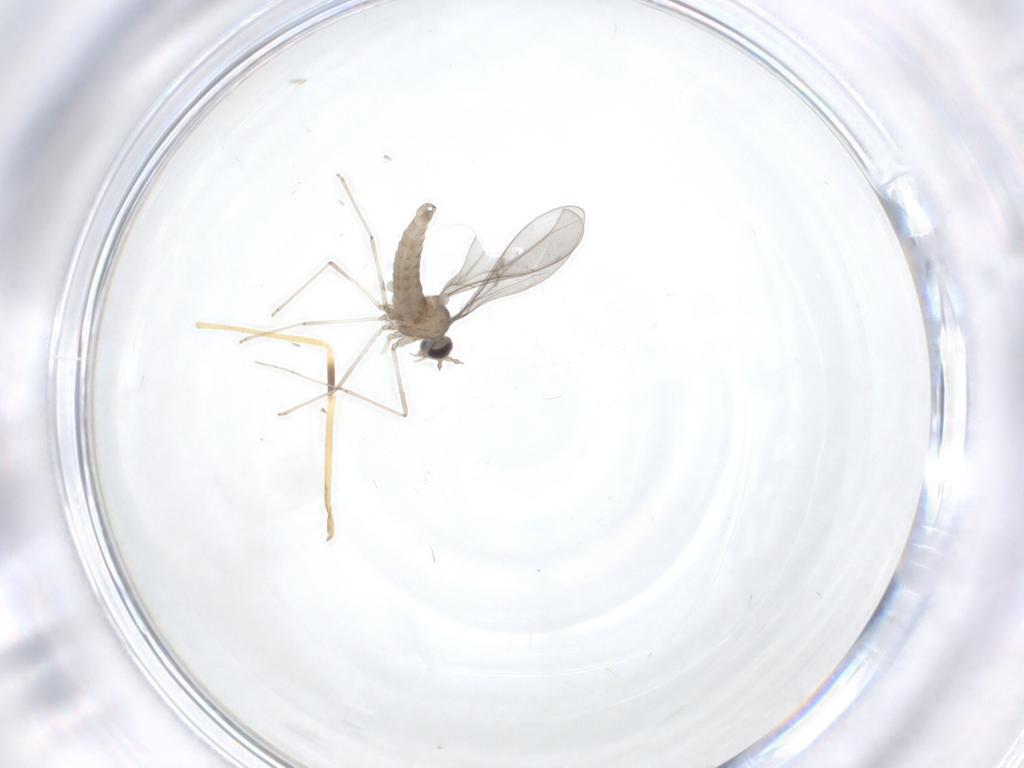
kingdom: Animalia
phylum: Arthropoda
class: Insecta
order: Diptera
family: Cecidomyiidae
